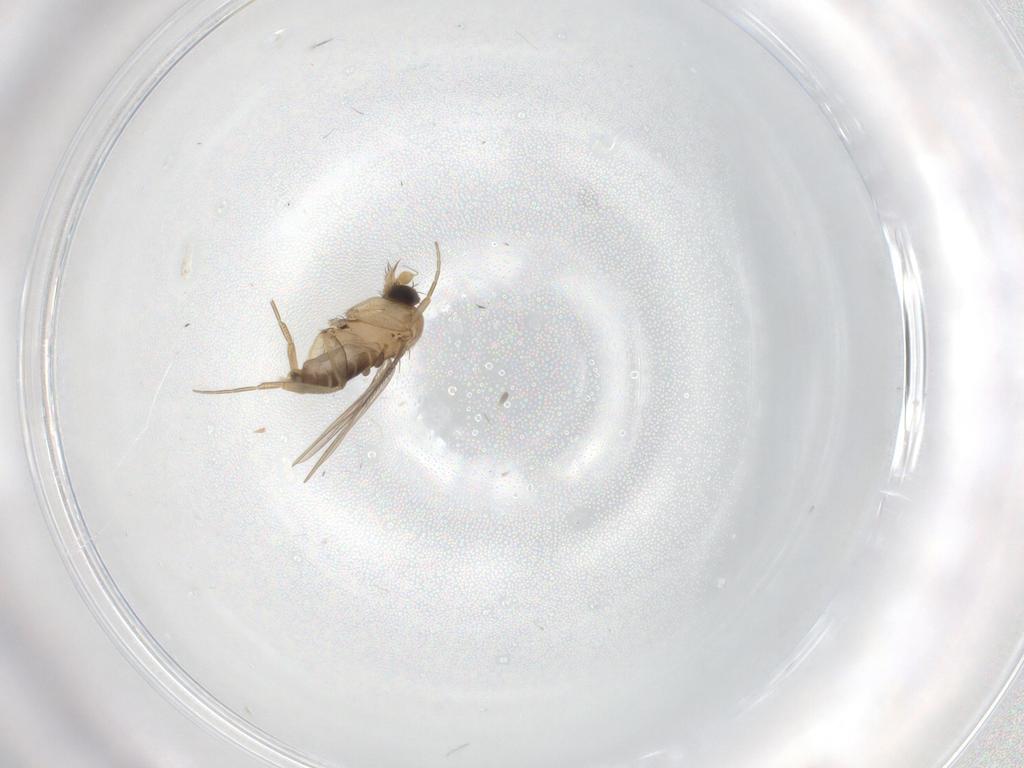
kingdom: Animalia
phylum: Arthropoda
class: Insecta
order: Diptera
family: Phoridae
